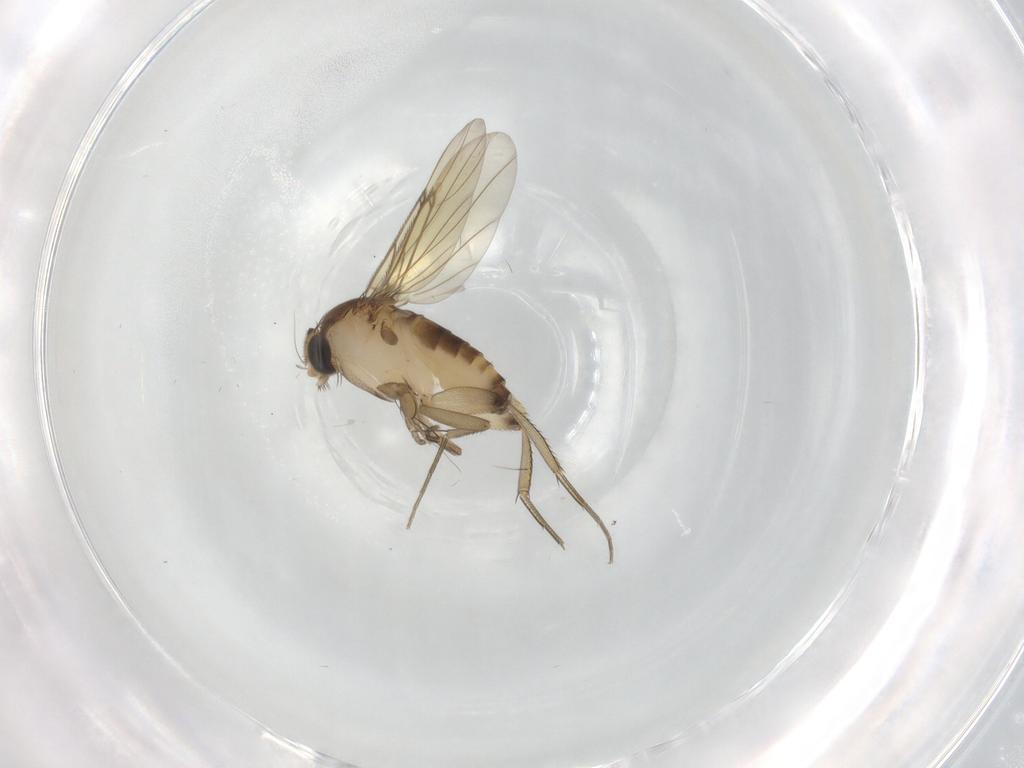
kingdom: Animalia
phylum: Arthropoda
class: Insecta
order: Diptera
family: Phoridae
